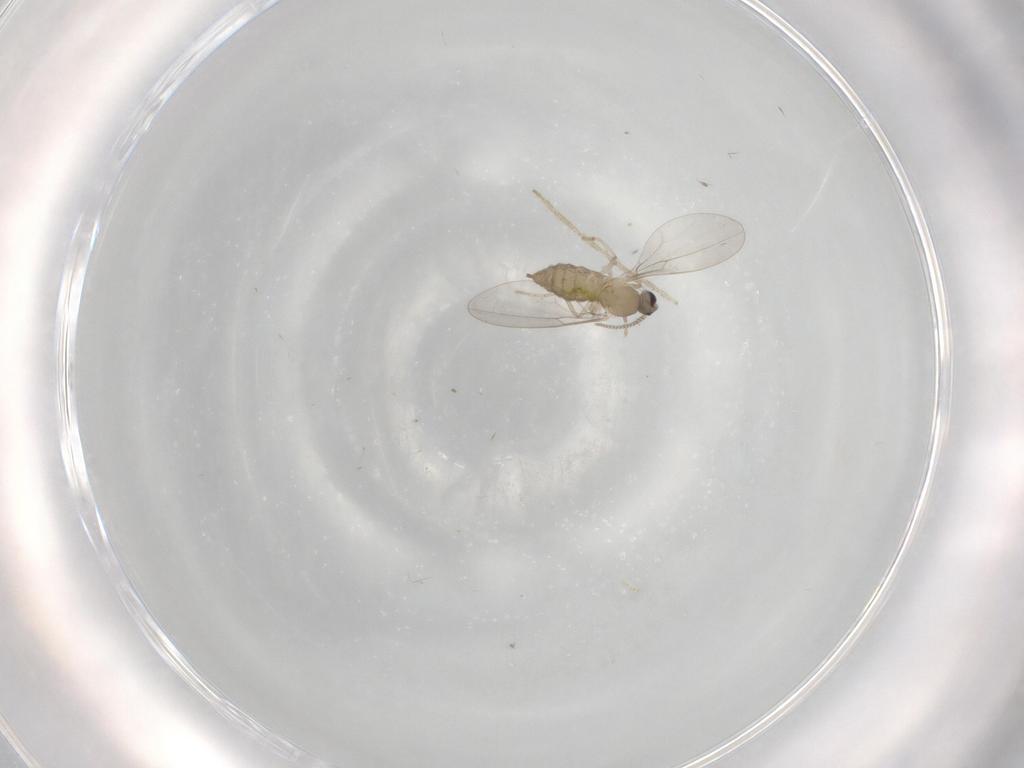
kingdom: Animalia
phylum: Arthropoda
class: Insecta
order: Diptera
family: Cecidomyiidae
